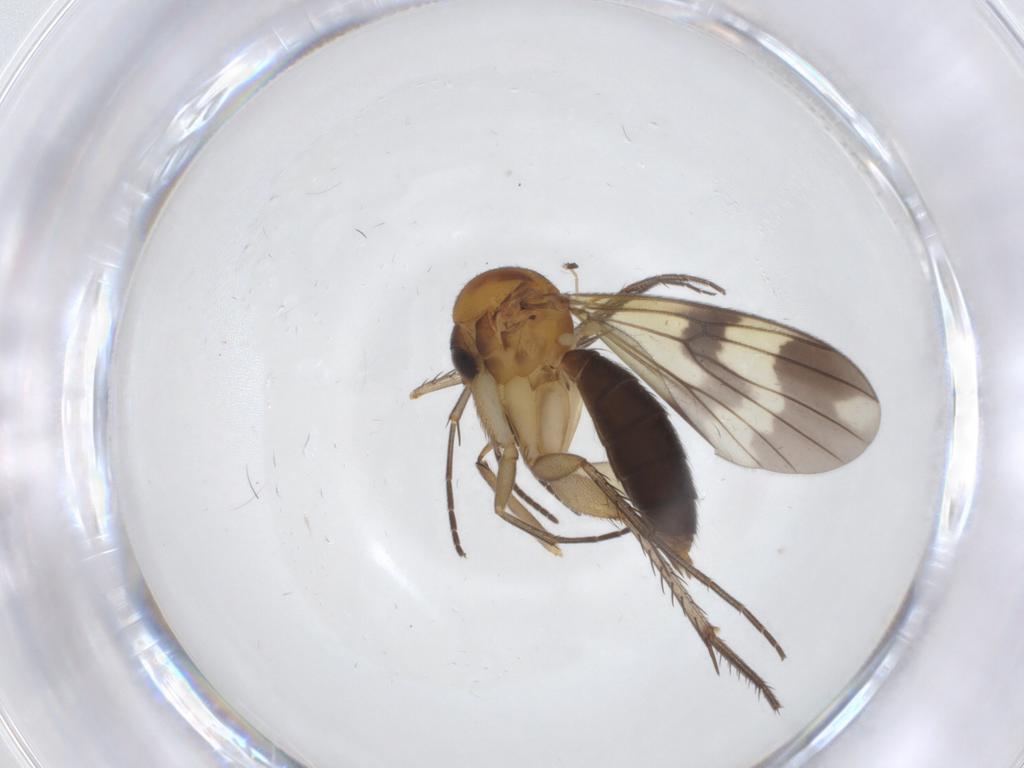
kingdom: Animalia
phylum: Arthropoda
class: Insecta
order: Diptera
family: Mycetophilidae
